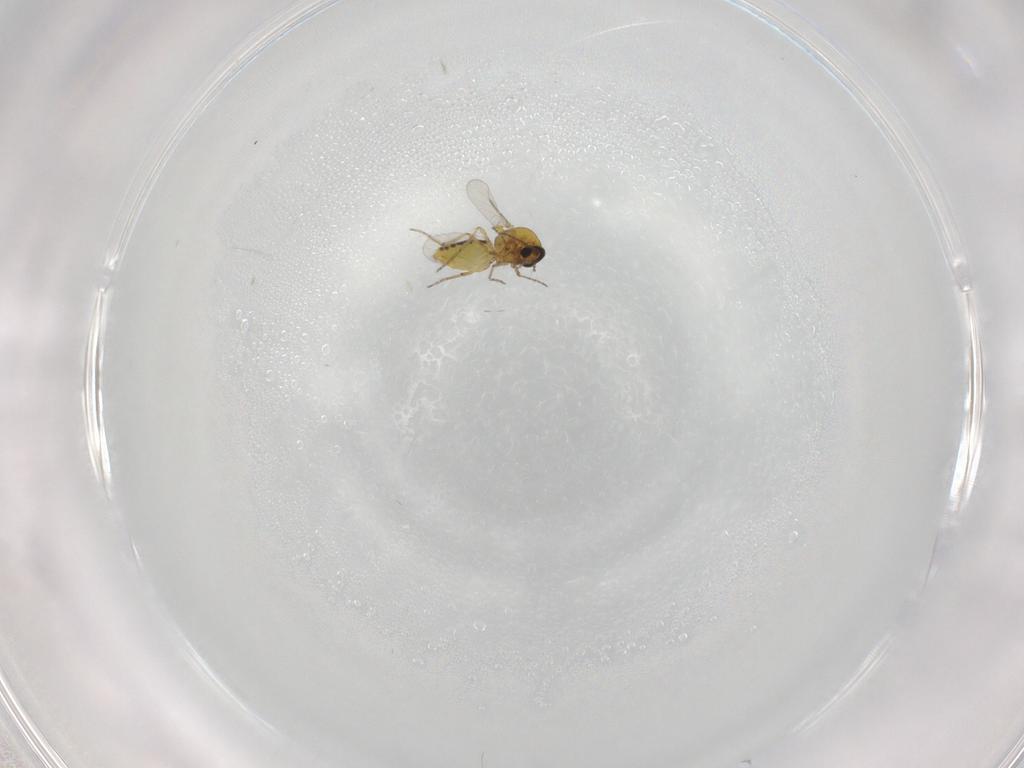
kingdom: Animalia
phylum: Arthropoda
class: Insecta
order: Diptera
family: Ceratopogonidae
